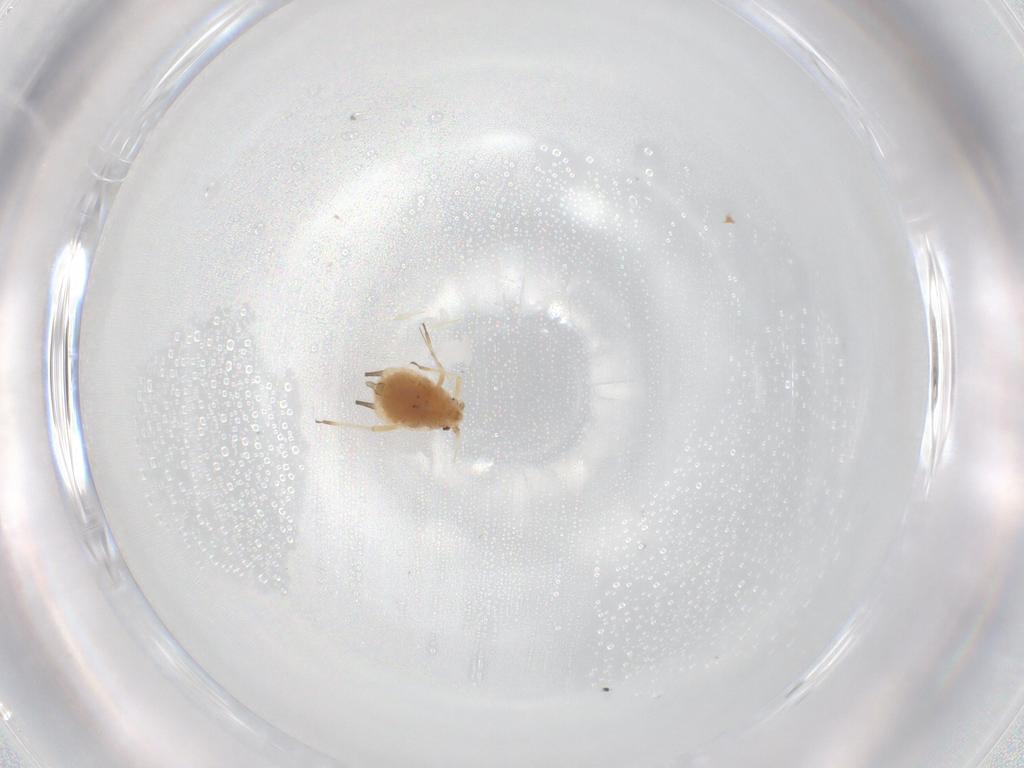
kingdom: Animalia
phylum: Arthropoda
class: Insecta
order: Hemiptera
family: Aphididae
